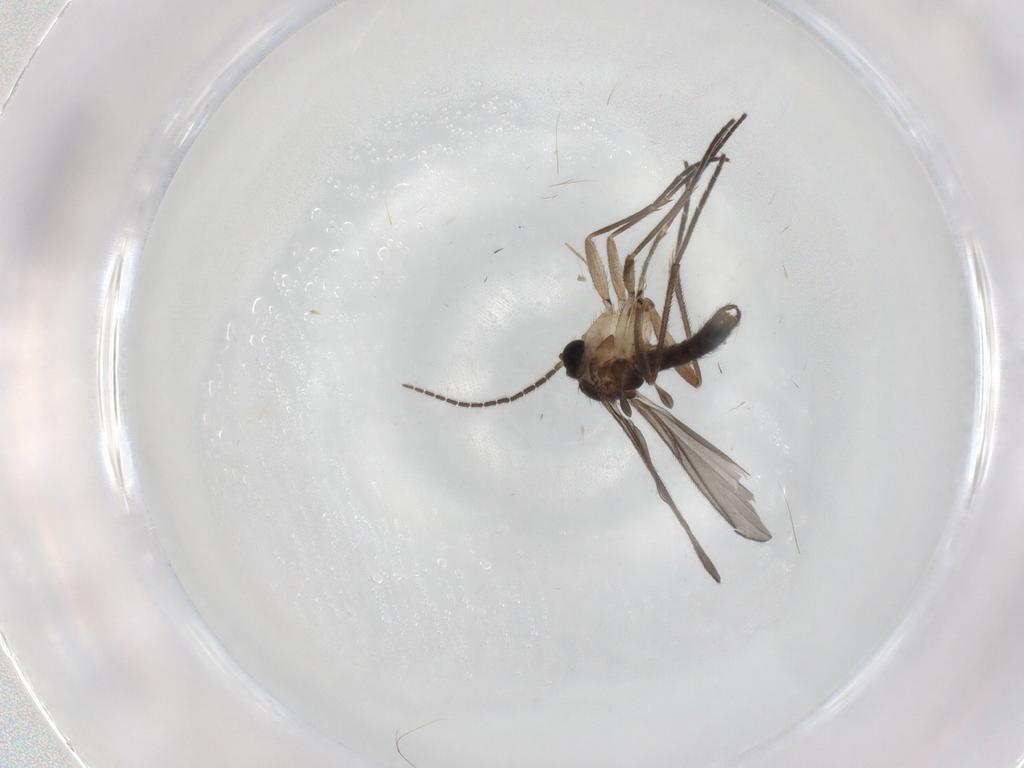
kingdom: Animalia
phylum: Arthropoda
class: Insecta
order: Diptera
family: Sciaridae
